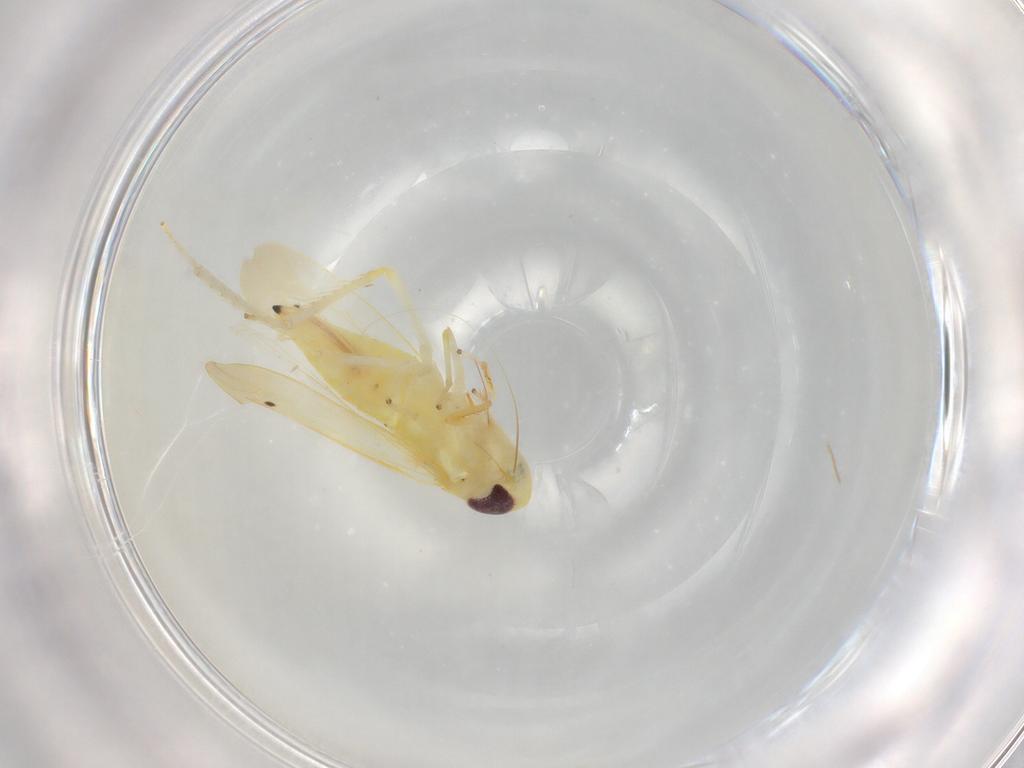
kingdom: Animalia
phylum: Arthropoda
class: Insecta
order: Hemiptera
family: Cicadellidae
